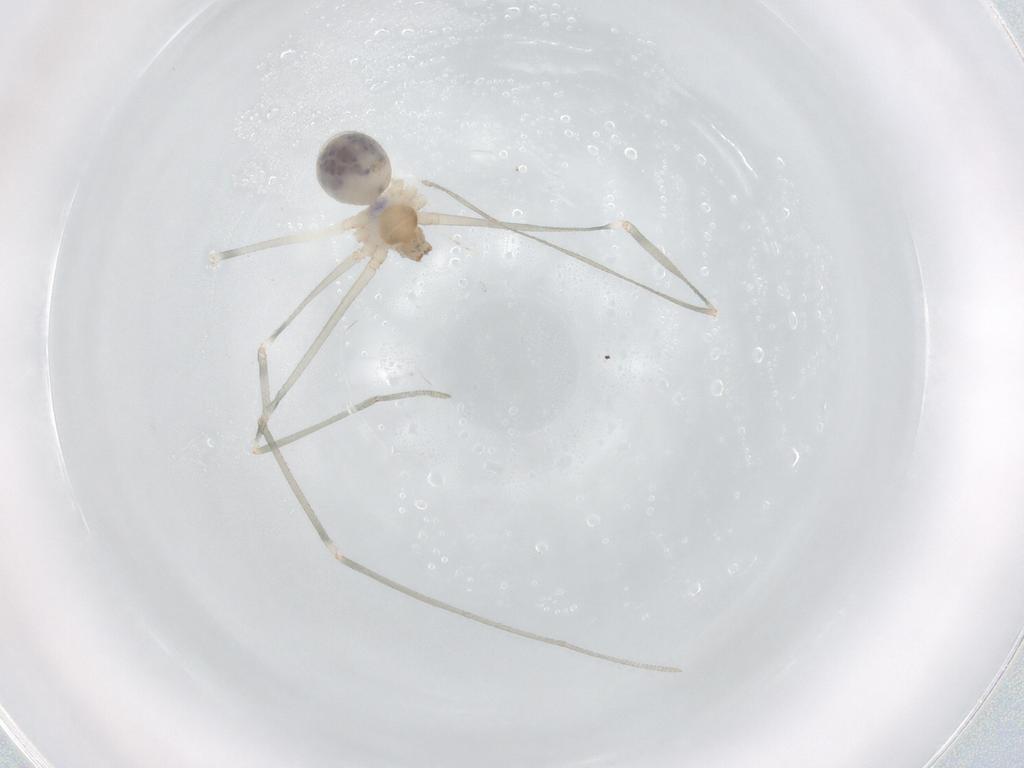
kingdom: Animalia
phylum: Arthropoda
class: Arachnida
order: Araneae
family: Pholcidae
